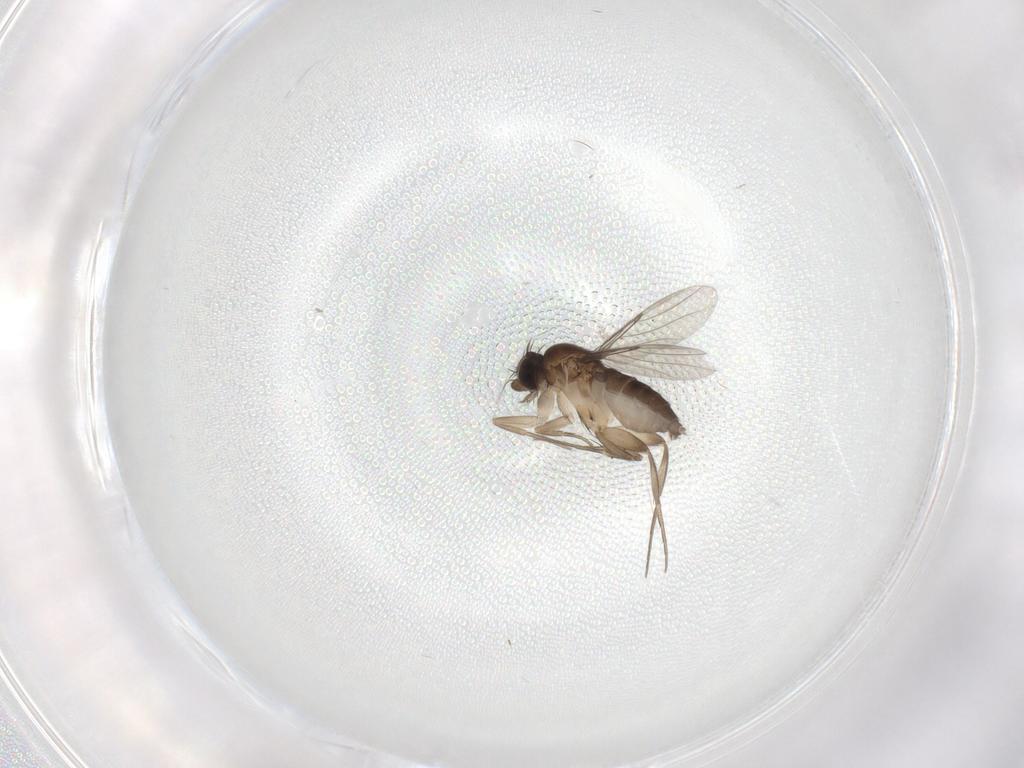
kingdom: Animalia
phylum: Arthropoda
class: Insecta
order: Diptera
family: Phoridae
